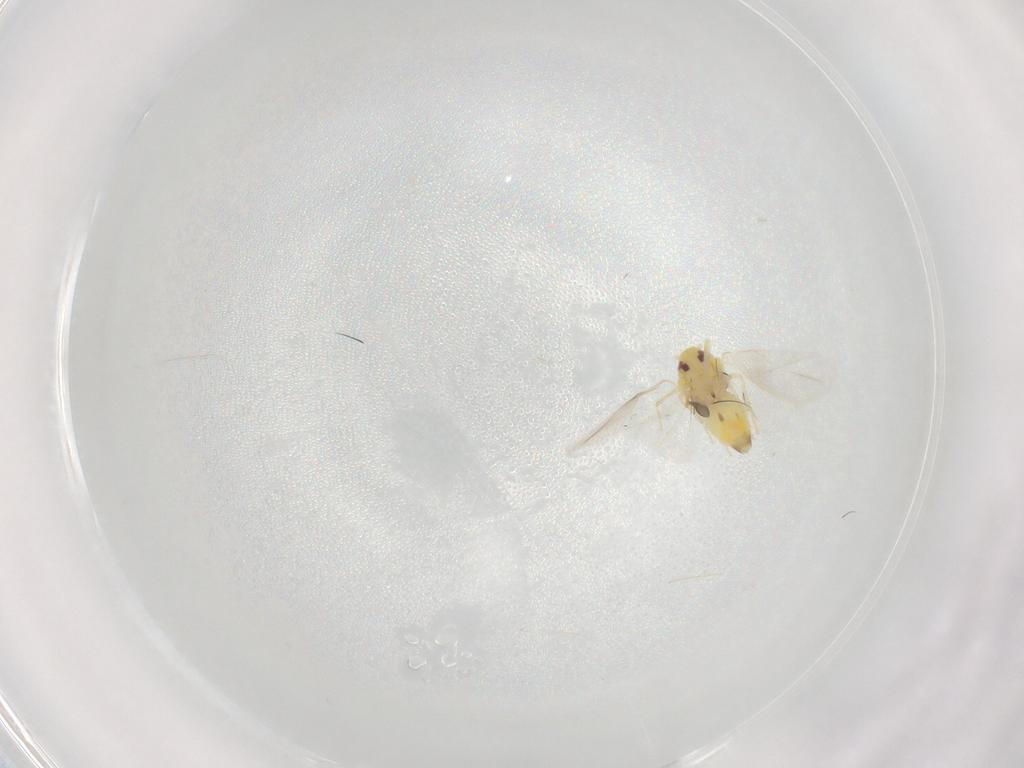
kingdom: Animalia
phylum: Arthropoda
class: Insecta
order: Hemiptera
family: Aleyrodidae
